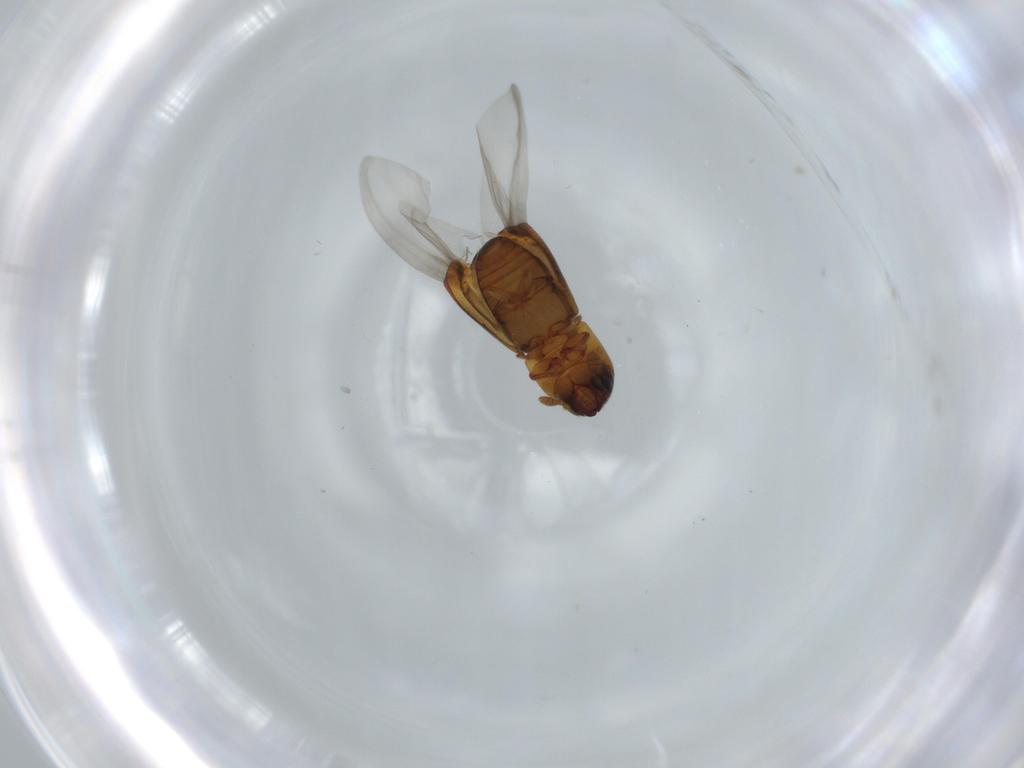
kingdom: Animalia
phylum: Arthropoda
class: Insecta
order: Coleoptera
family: Curculionidae
